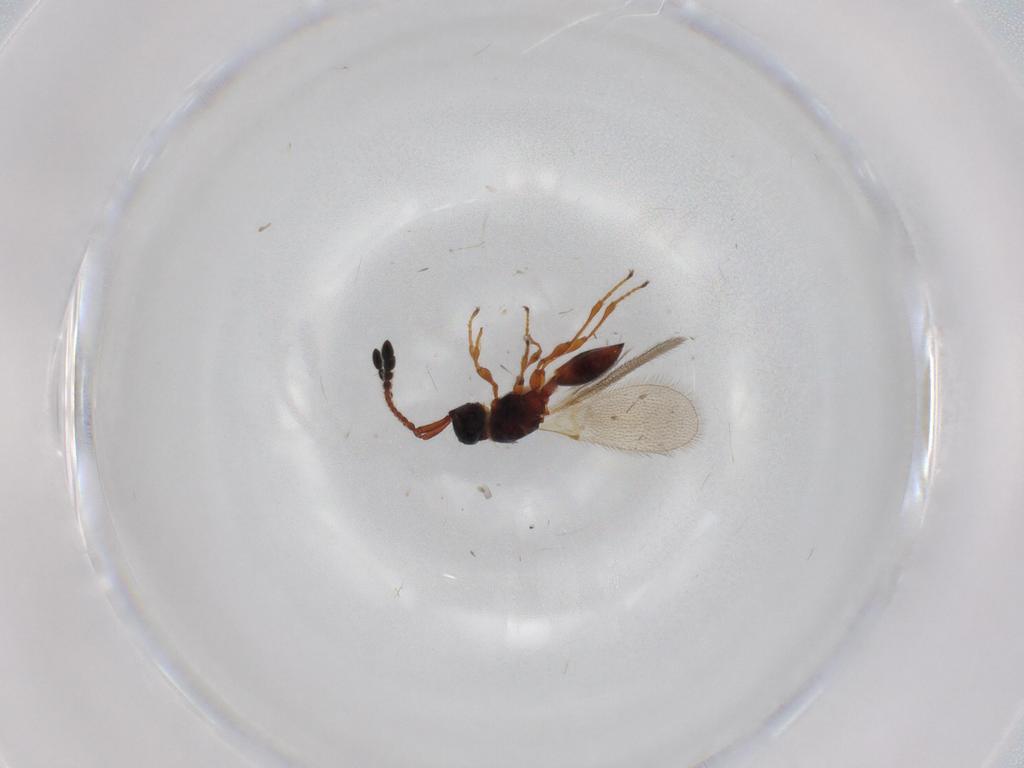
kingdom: Animalia
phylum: Arthropoda
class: Insecta
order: Hymenoptera
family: Diapriidae
